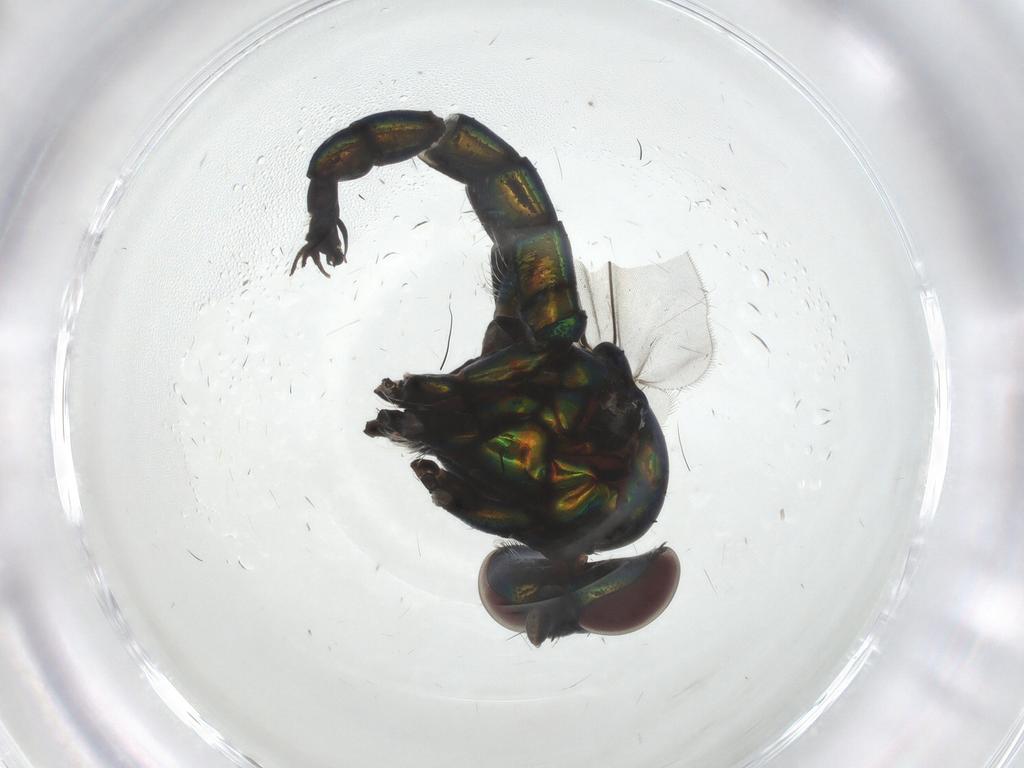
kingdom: Animalia
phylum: Arthropoda
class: Insecta
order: Diptera
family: Dolichopodidae
